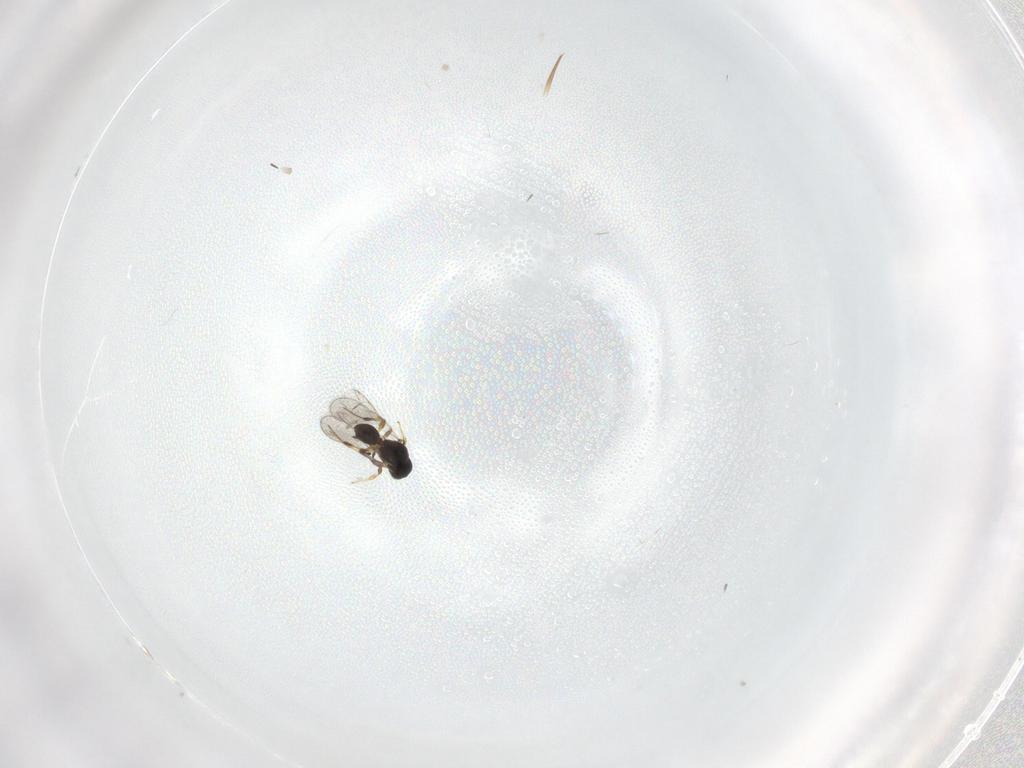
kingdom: Animalia
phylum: Arthropoda
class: Insecta
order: Hymenoptera
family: Platygastridae
